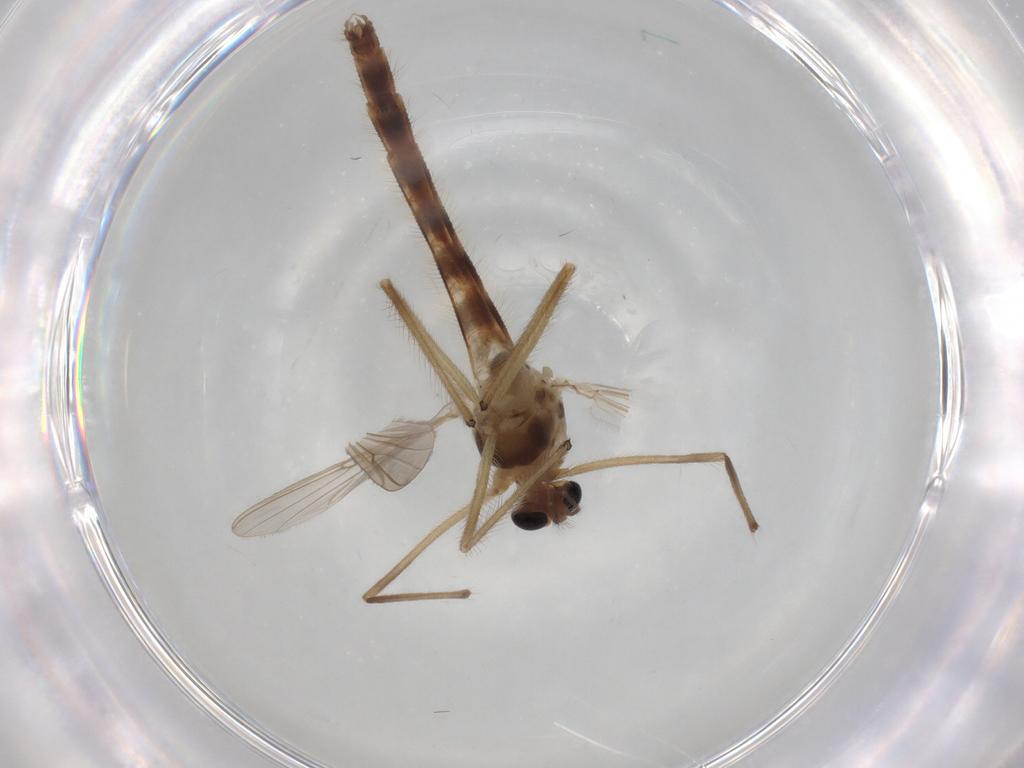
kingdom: Animalia
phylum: Arthropoda
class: Insecta
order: Diptera
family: Chironomidae
